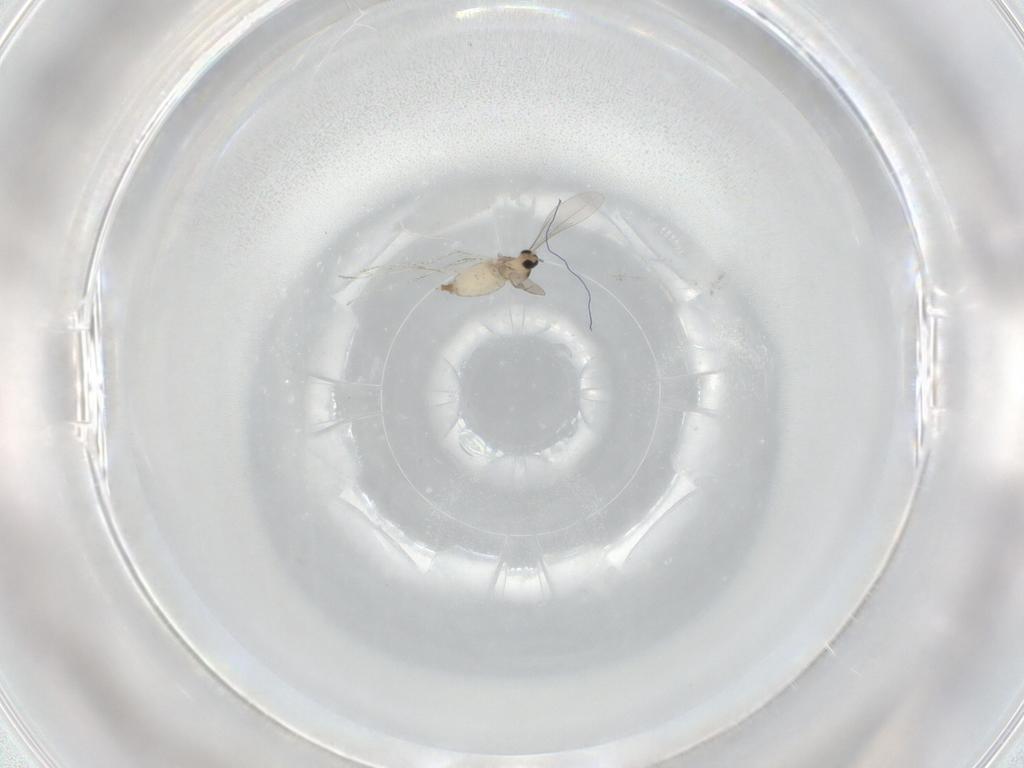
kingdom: Animalia
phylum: Arthropoda
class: Insecta
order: Diptera
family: Cecidomyiidae
